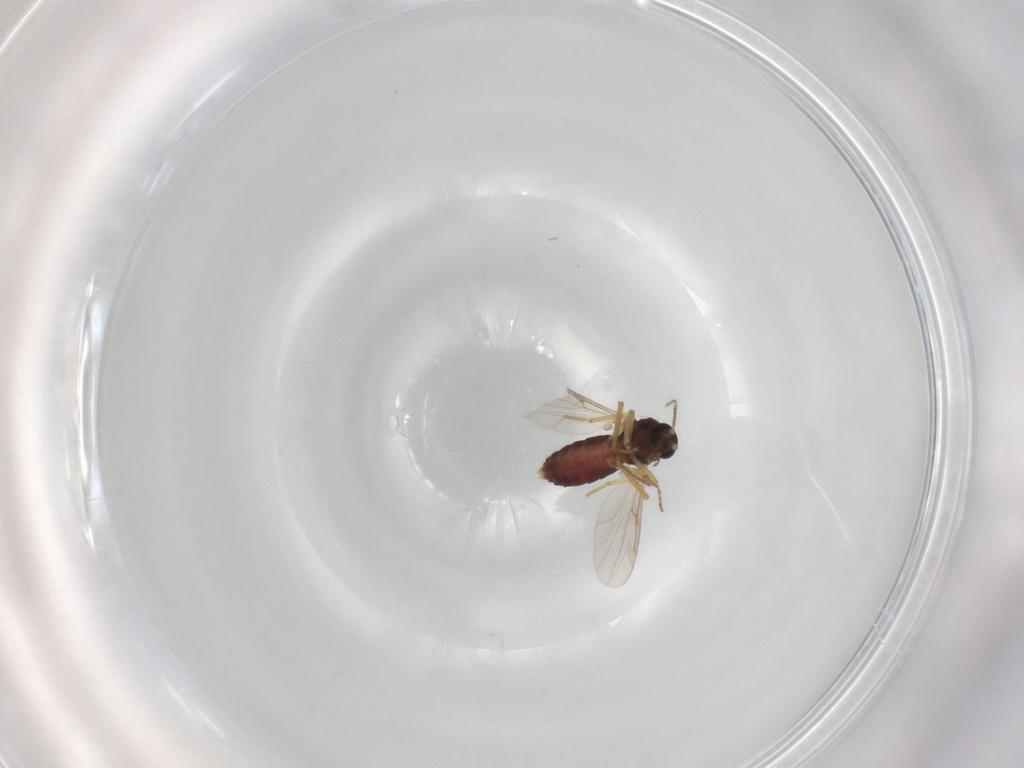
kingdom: Animalia
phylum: Arthropoda
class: Insecta
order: Diptera
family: Ceratopogonidae
